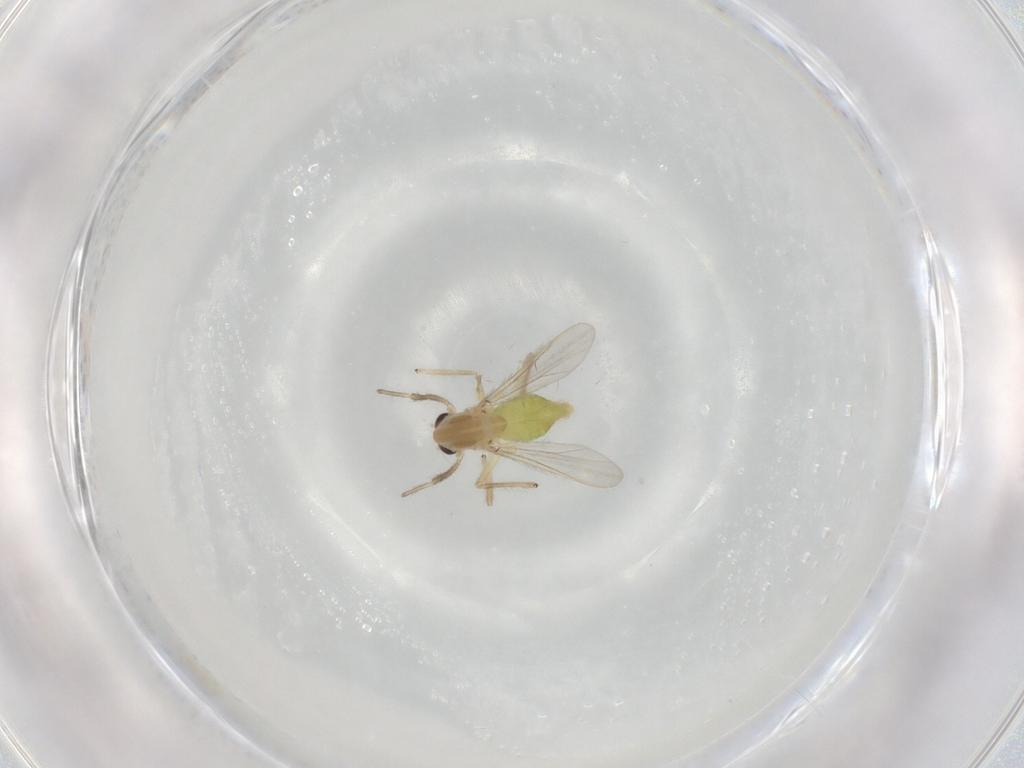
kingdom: Animalia
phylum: Arthropoda
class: Insecta
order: Diptera
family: Chironomidae
